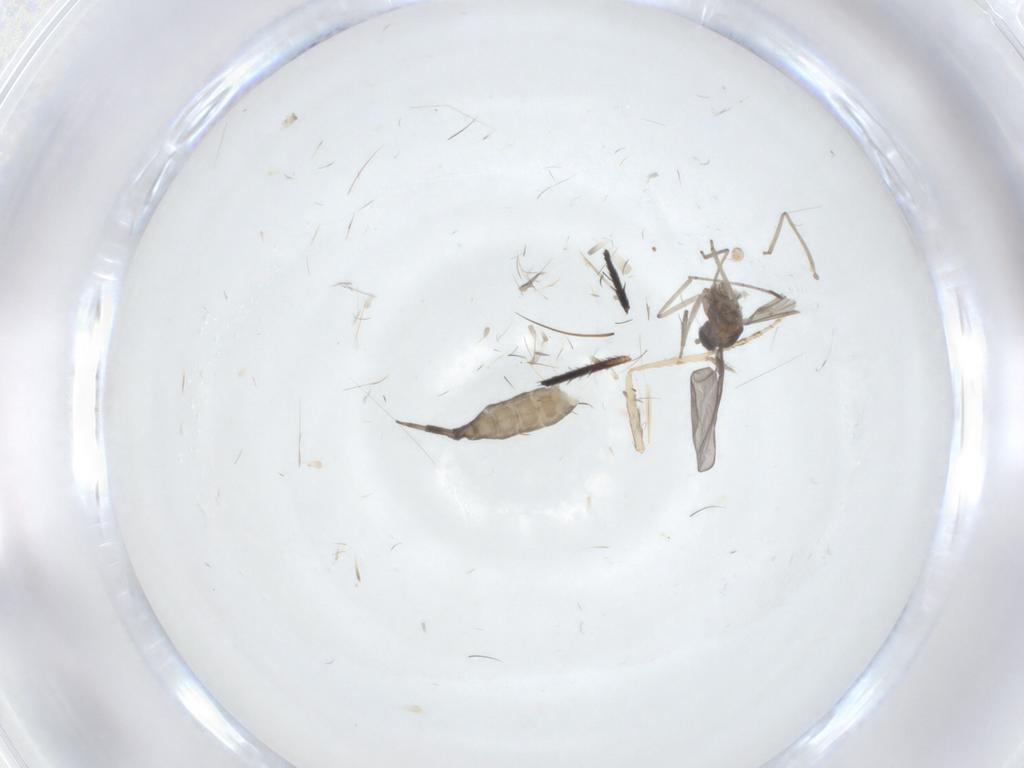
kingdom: Animalia
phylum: Arthropoda
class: Insecta
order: Diptera
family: Cecidomyiidae
